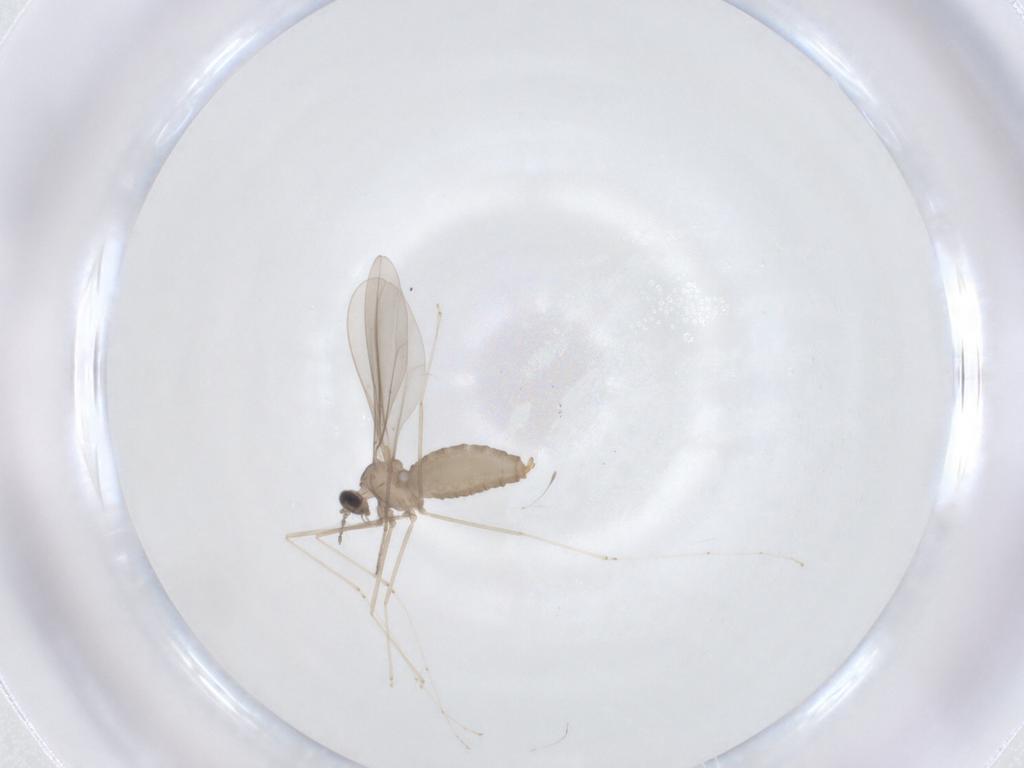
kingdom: Animalia
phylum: Arthropoda
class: Insecta
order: Diptera
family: Cecidomyiidae
